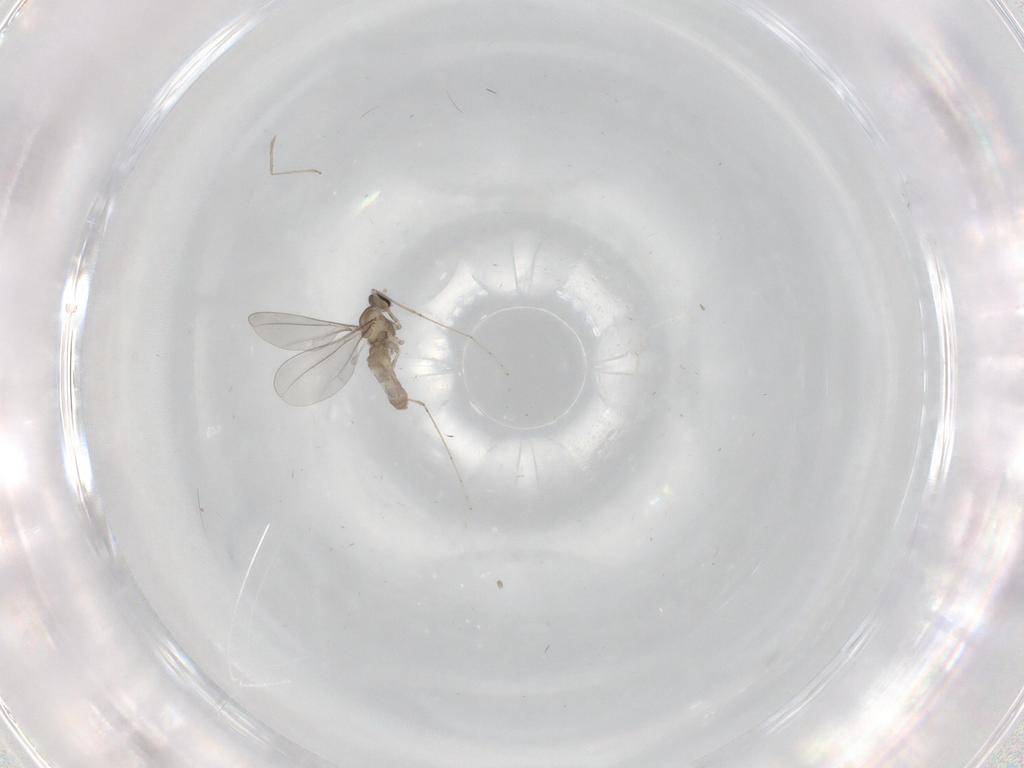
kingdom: Animalia
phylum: Arthropoda
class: Insecta
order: Diptera
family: Cecidomyiidae
